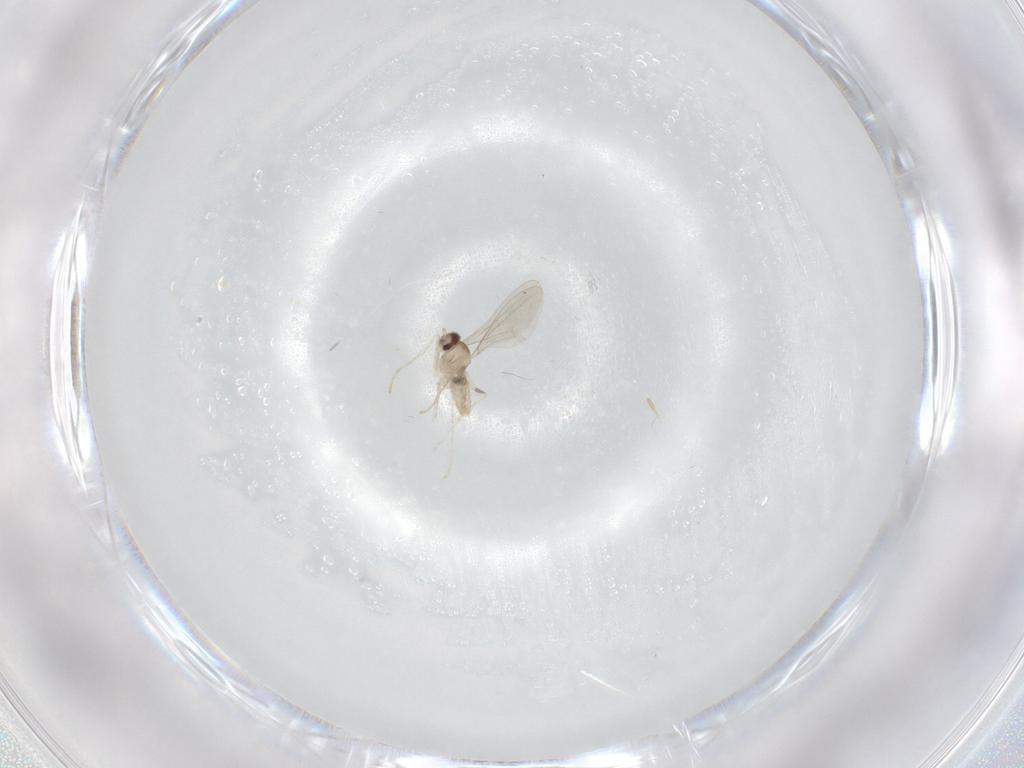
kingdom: Animalia
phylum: Arthropoda
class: Insecta
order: Diptera
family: Cecidomyiidae
